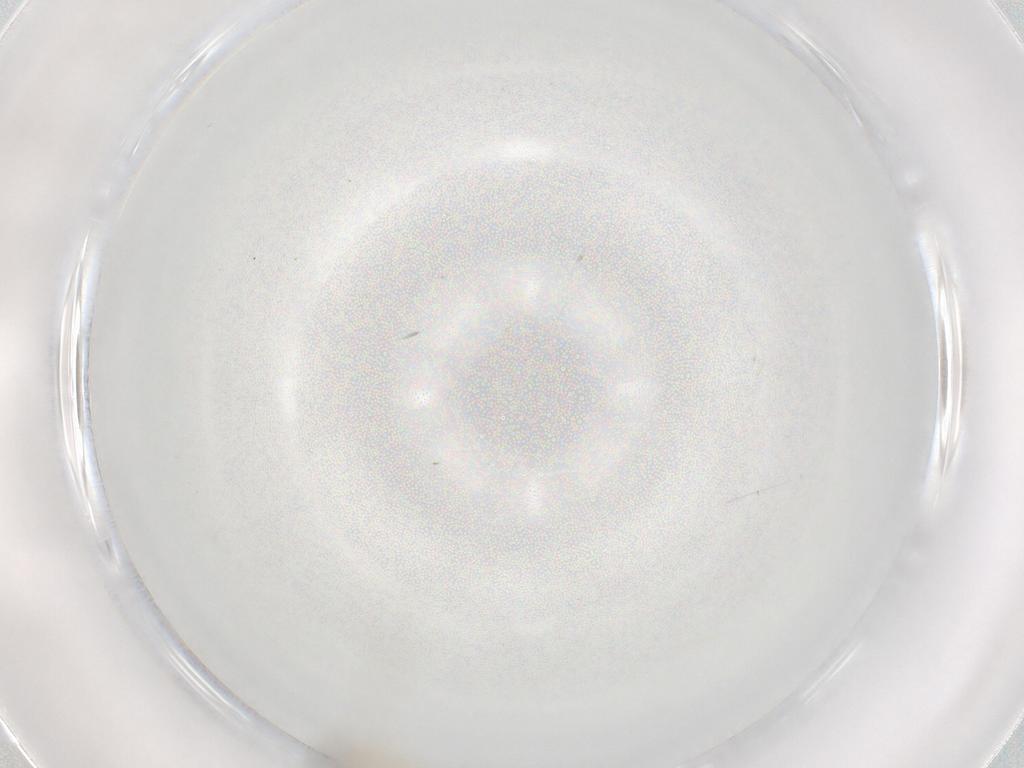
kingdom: Animalia
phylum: Arthropoda
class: Insecta
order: Diptera
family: Cecidomyiidae
